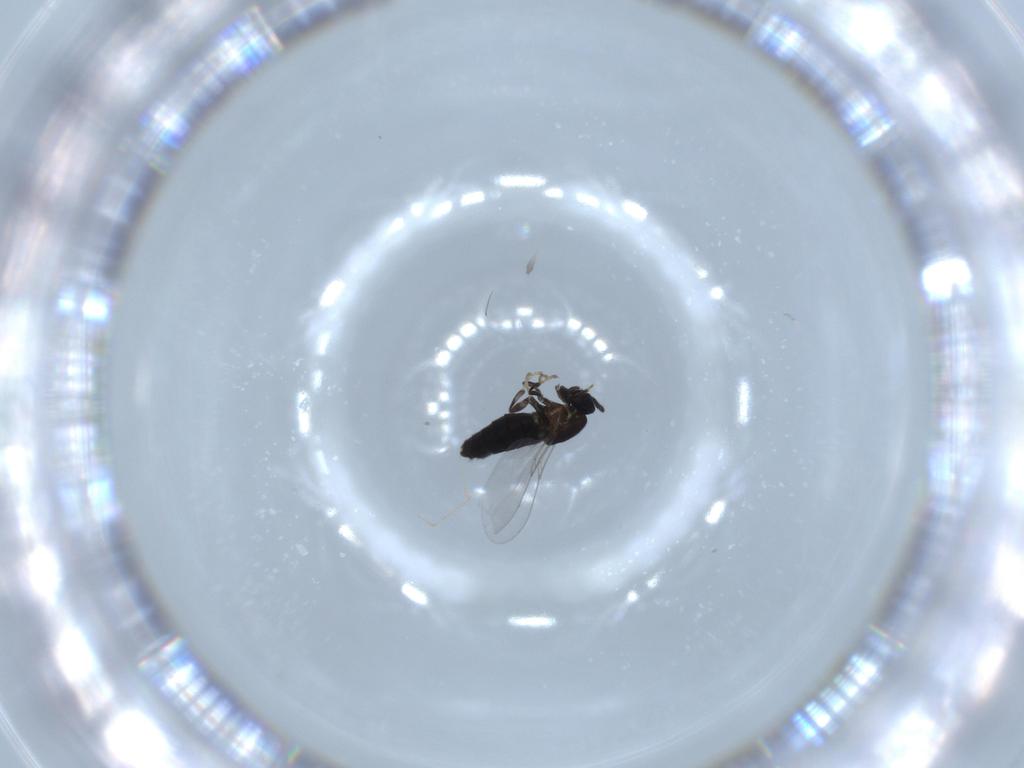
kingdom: Animalia
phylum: Arthropoda
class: Insecta
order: Diptera
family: Scatopsidae
